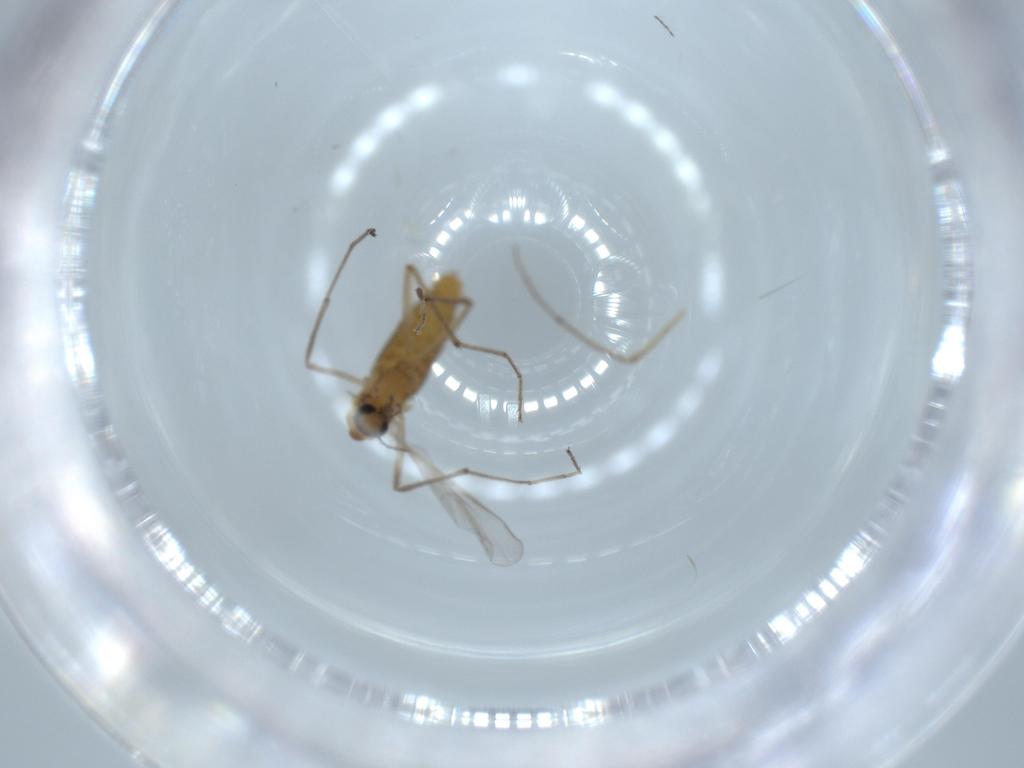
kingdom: Animalia
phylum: Arthropoda
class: Insecta
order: Diptera
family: Chironomidae
